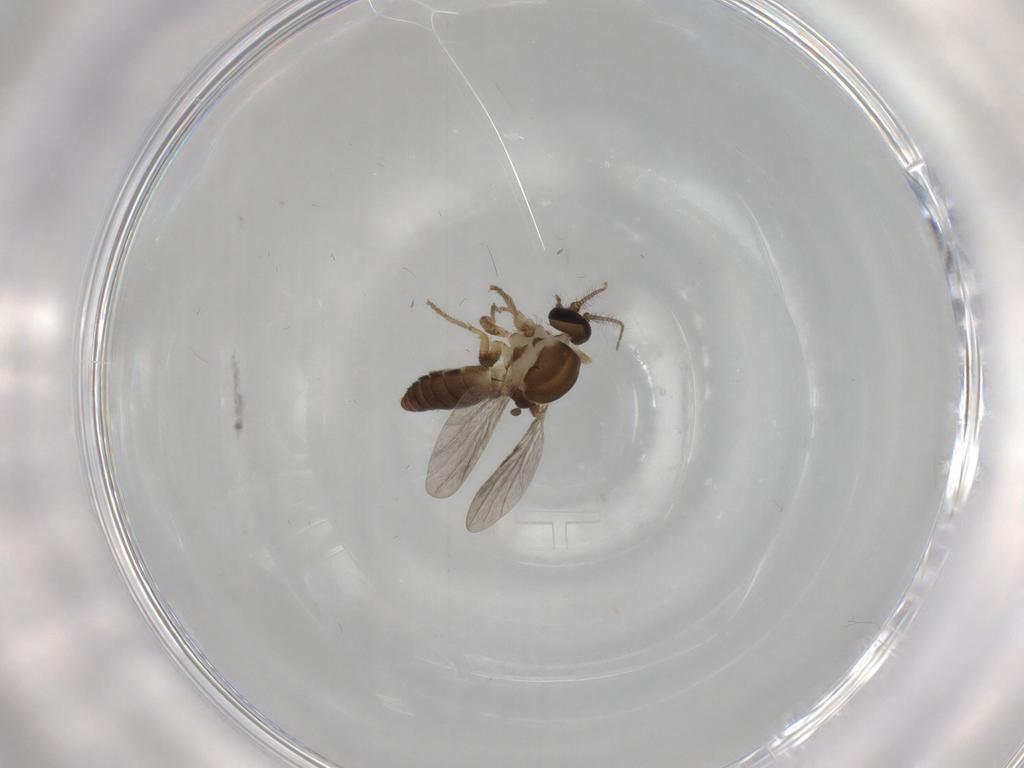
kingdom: Animalia
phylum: Arthropoda
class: Insecta
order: Diptera
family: Ceratopogonidae
